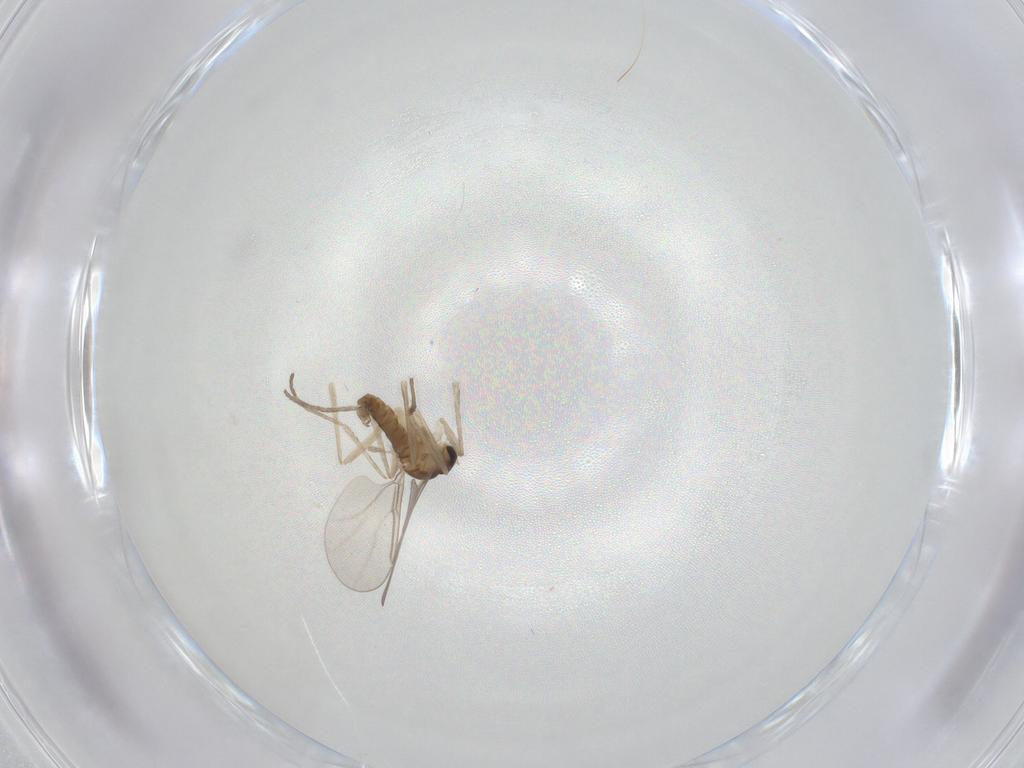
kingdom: Animalia
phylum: Arthropoda
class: Insecta
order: Diptera
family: Cecidomyiidae
